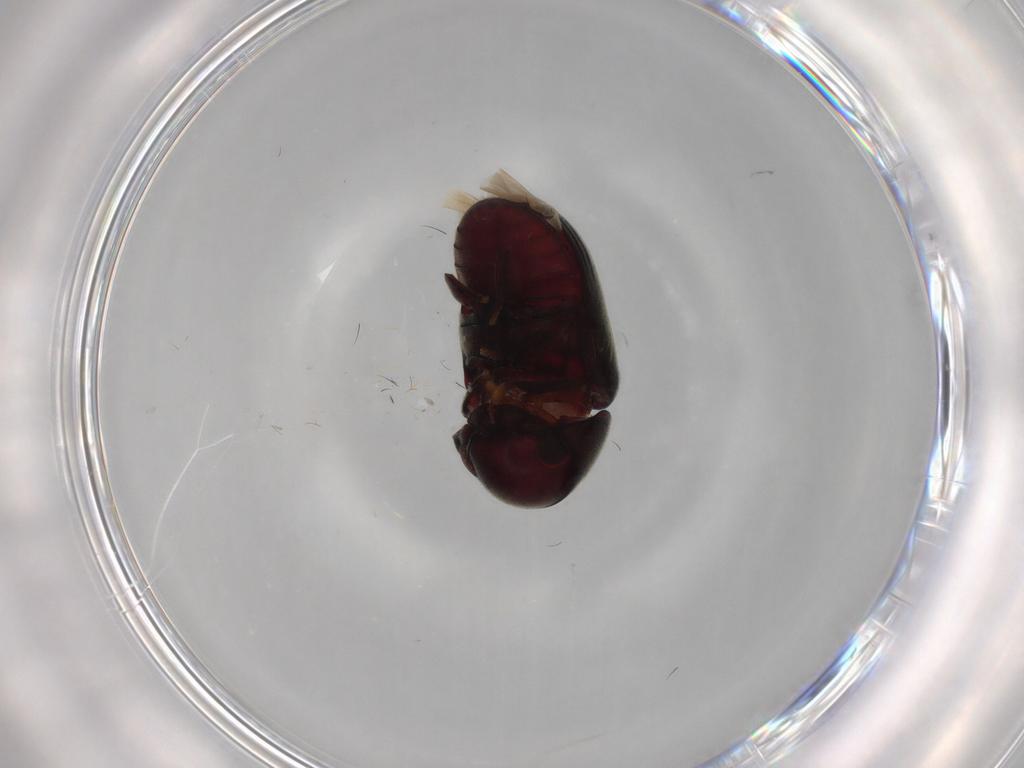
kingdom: Animalia
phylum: Arthropoda
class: Insecta
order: Coleoptera
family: Ptinidae
